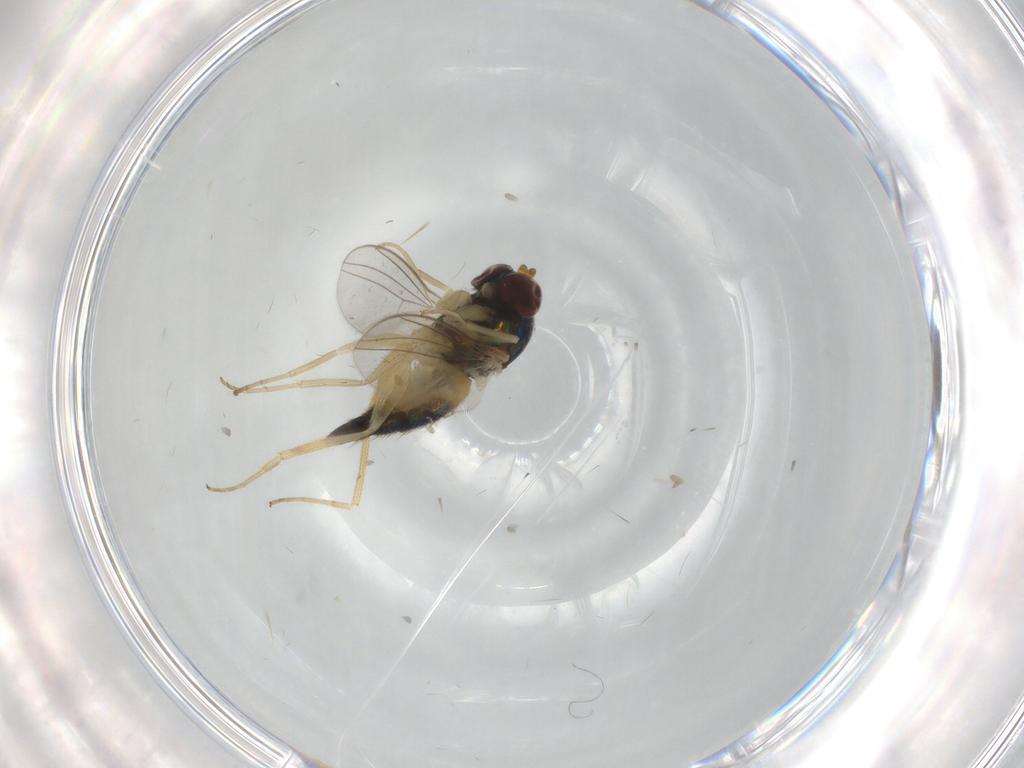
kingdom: Animalia
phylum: Arthropoda
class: Insecta
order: Diptera
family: Dolichopodidae
